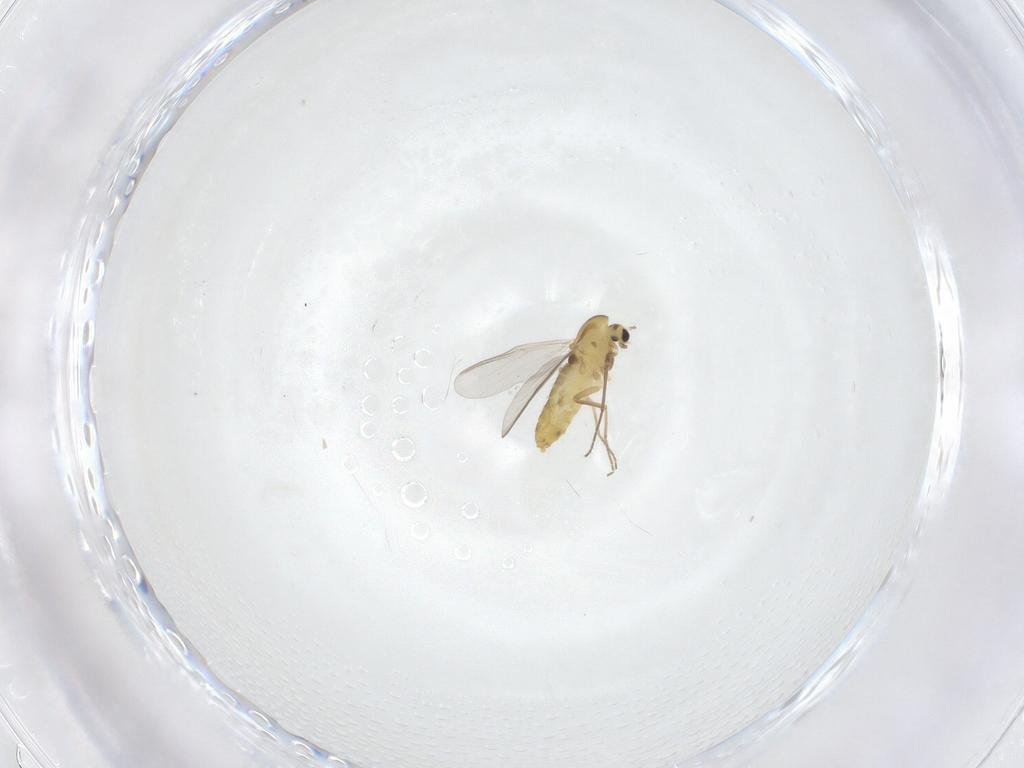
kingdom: Animalia
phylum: Arthropoda
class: Insecta
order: Diptera
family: Chironomidae
